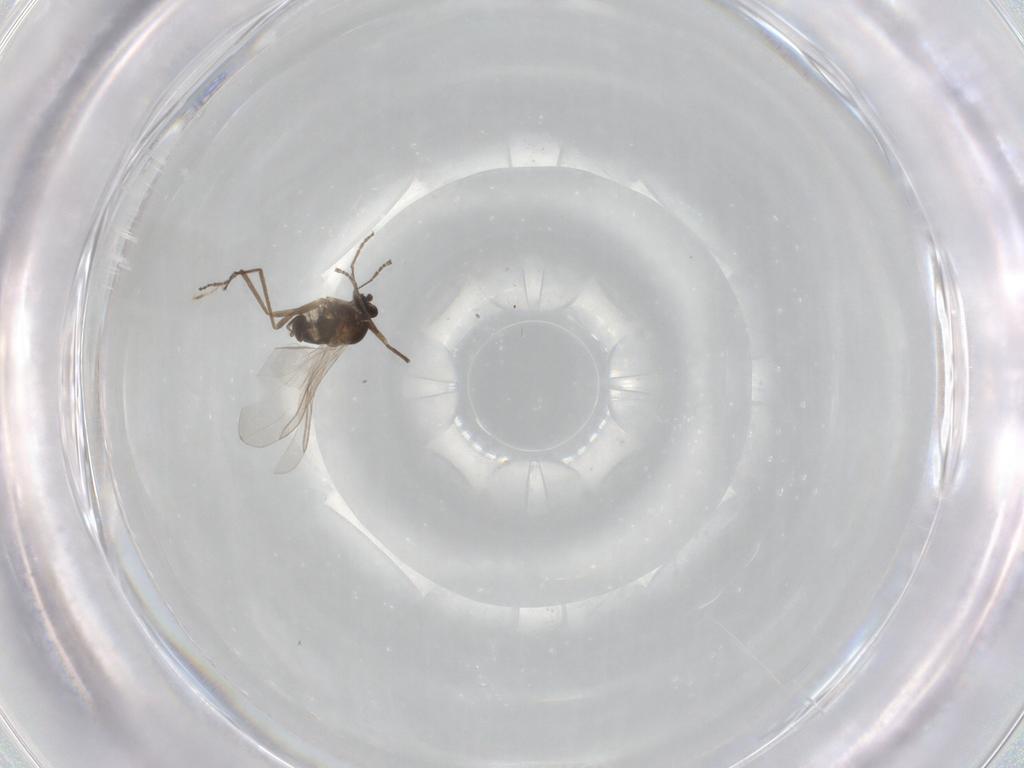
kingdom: Animalia
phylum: Arthropoda
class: Insecta
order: Diptera
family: Cecidomyiidae
